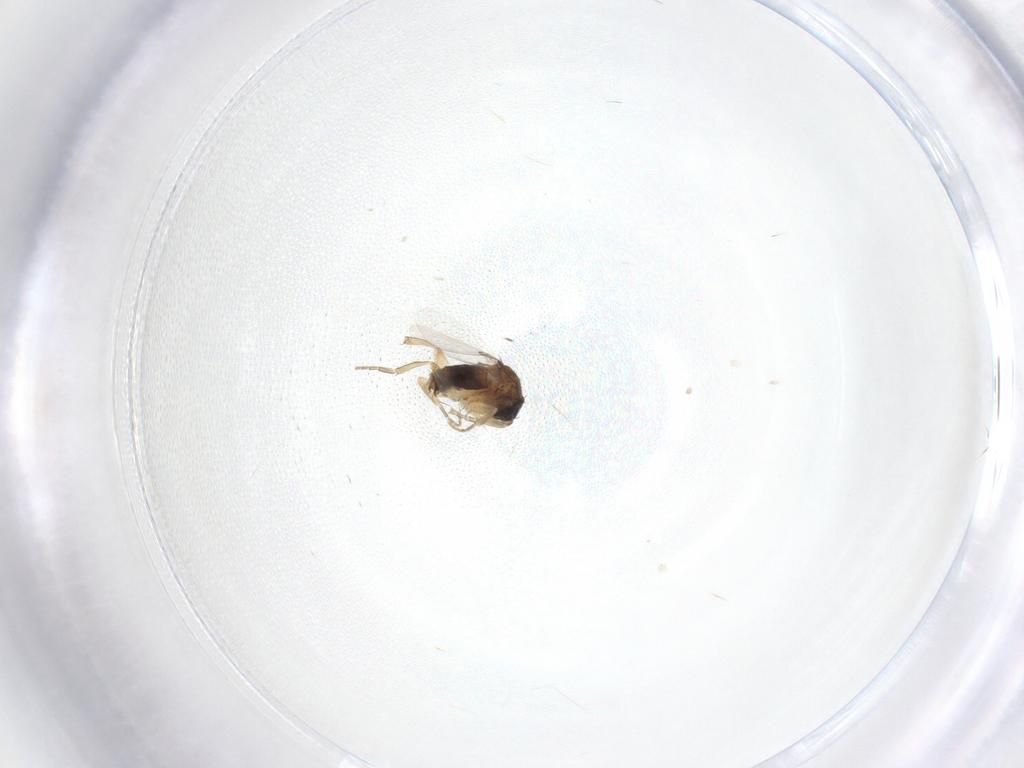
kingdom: Animalia
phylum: Arthropoda
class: Insecta
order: Diptera
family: Phoridae
